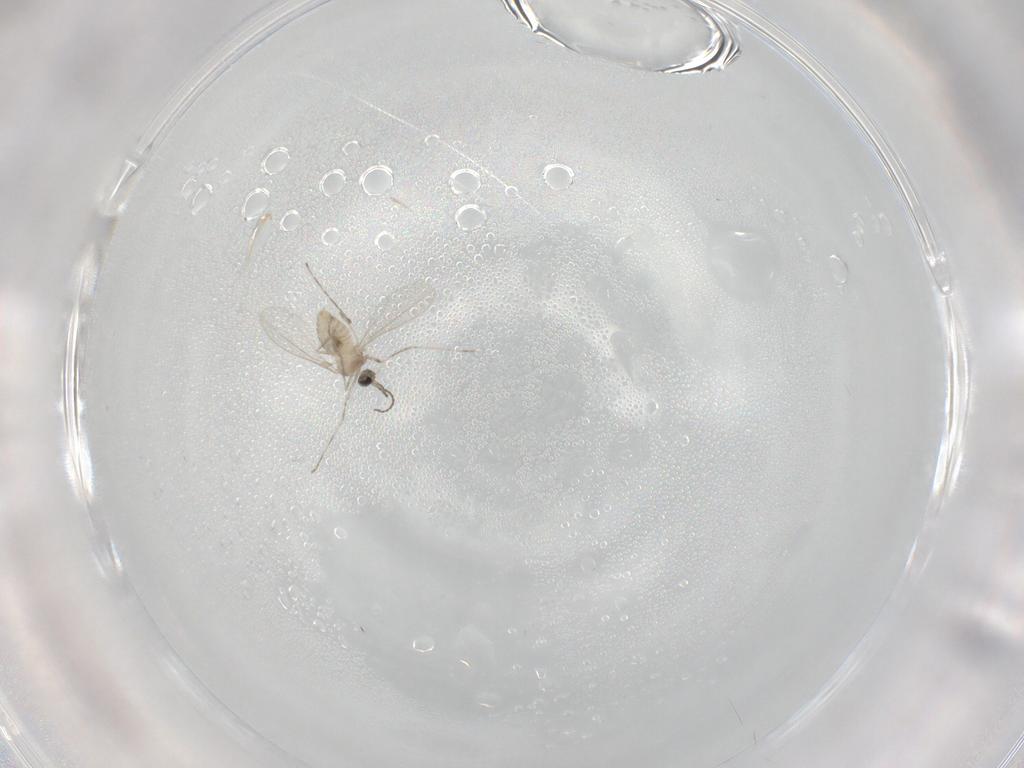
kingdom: Animalia
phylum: Arthropoda
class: Insecta
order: Diptera
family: Cecidomyiidae
